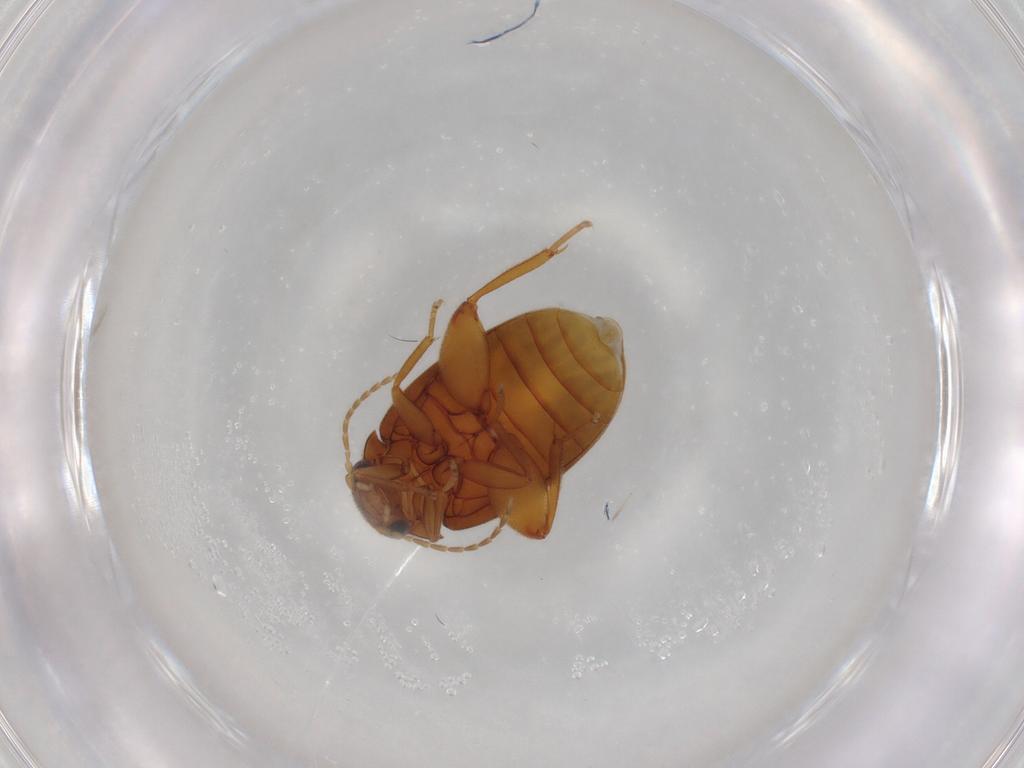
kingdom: Animalia
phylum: Arthropoda
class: Insecta
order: Coleoptera
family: Scirtidae
